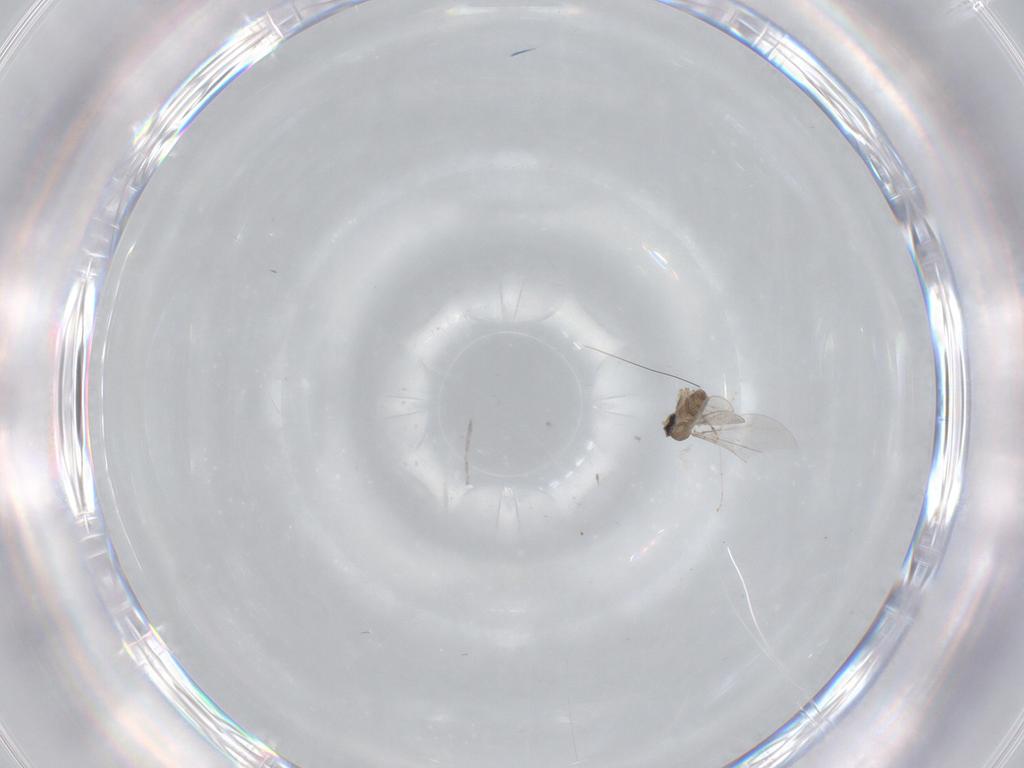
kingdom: Animalia
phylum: Arthropoda
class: Insecta
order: Diptera
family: Cecidomyiidae
